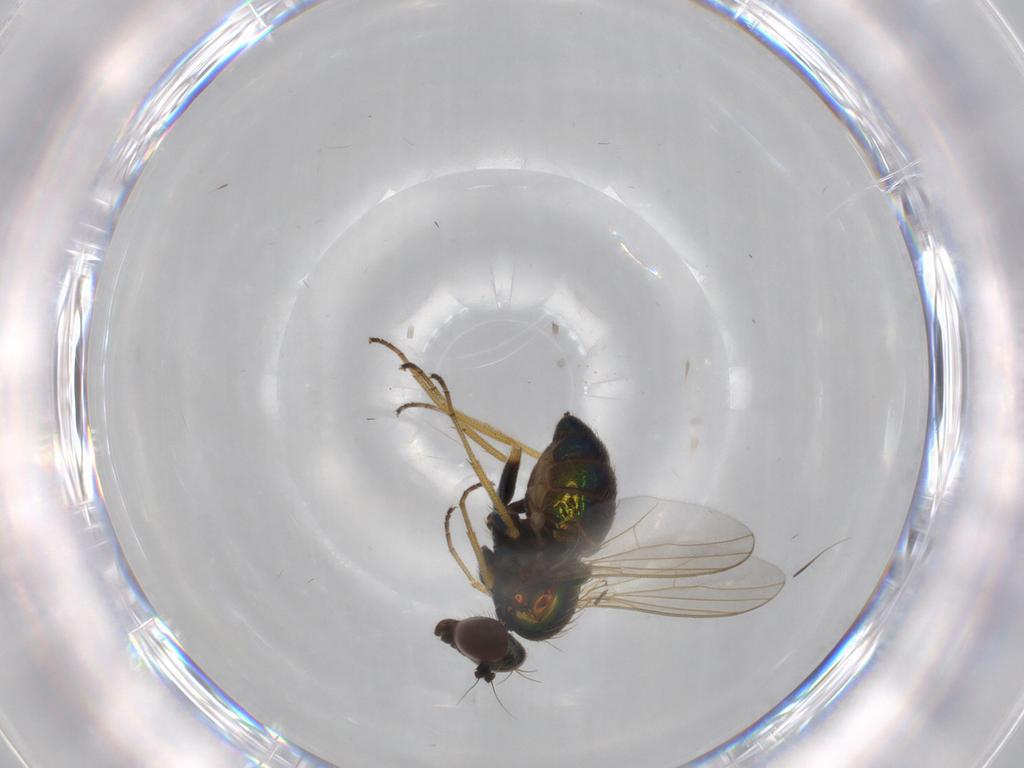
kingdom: Animalia
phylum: Arthropoda
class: Insecta
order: Diptera
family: Dolichopodidae
